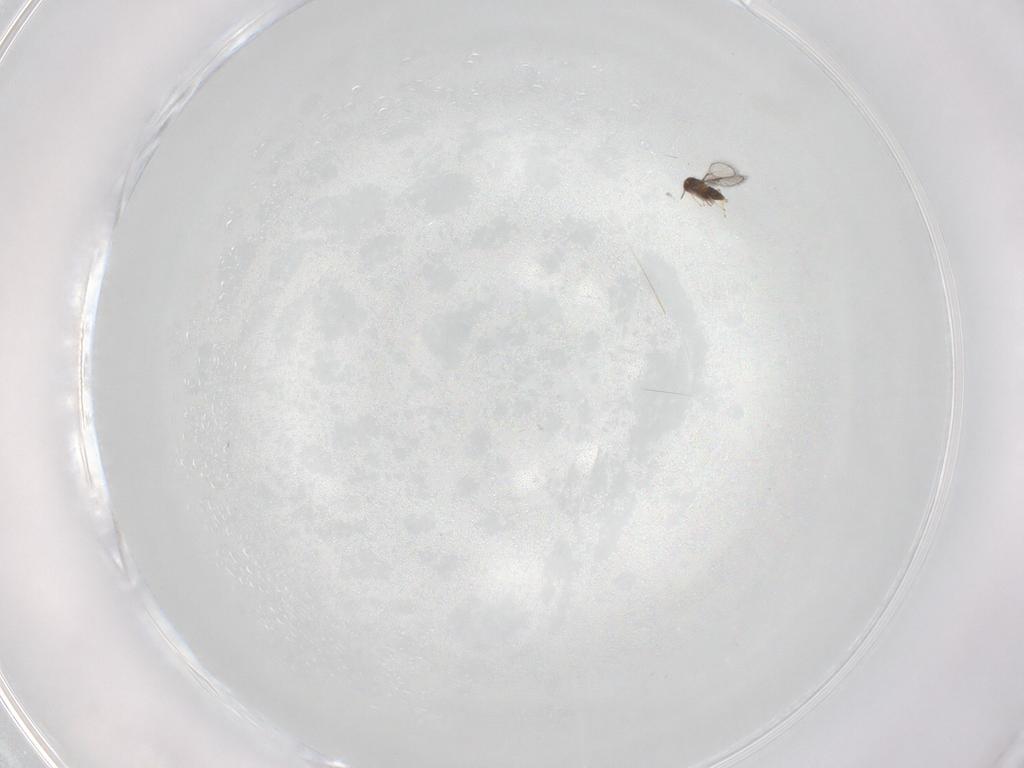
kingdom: Animalia
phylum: Arthropoda
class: Insecta
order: Hymenoptera
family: Trichogrammatidae
